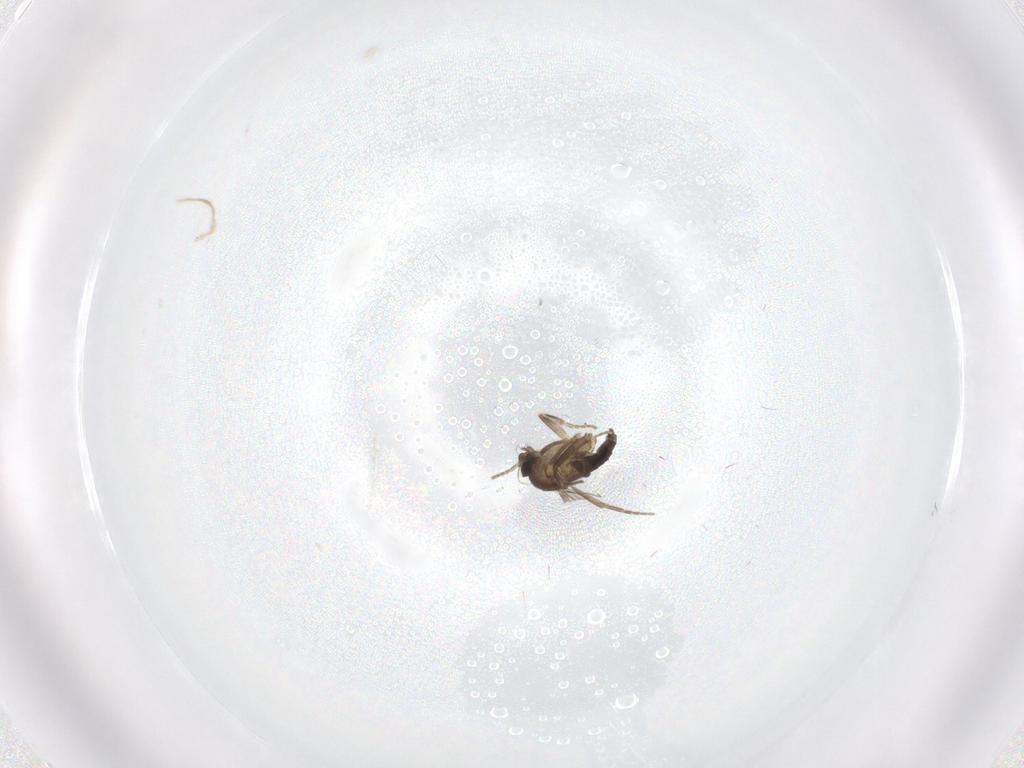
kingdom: Animalia
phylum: Arthropoda
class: Insecta
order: Diptera
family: Phoridae
